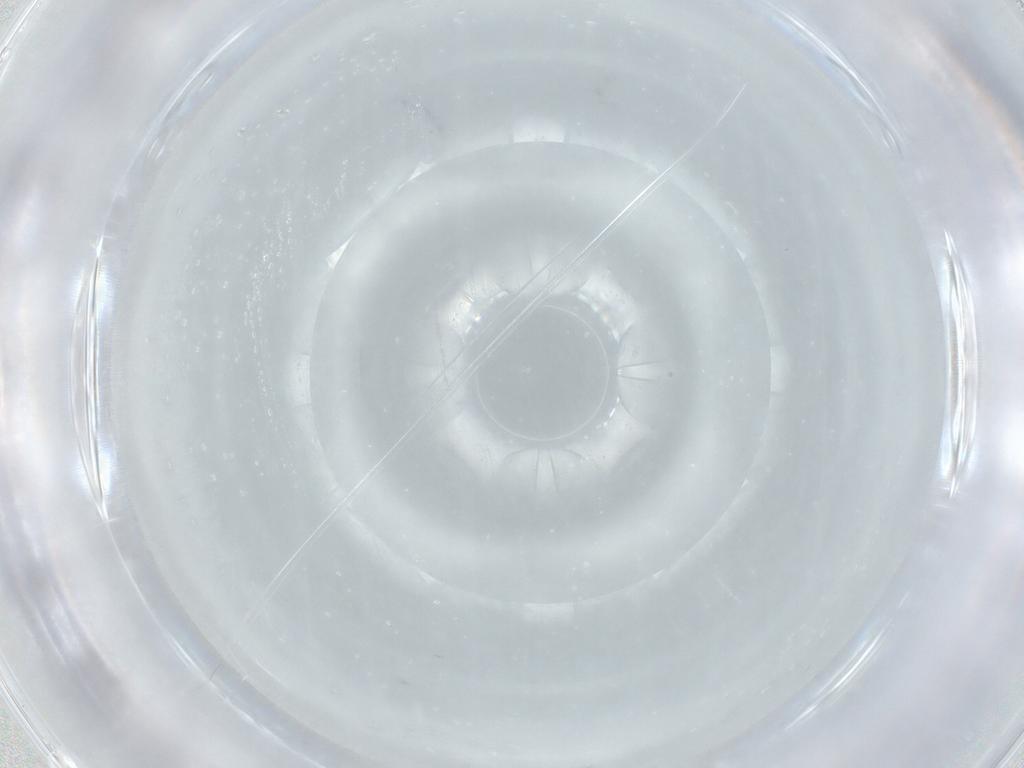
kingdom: Animalia
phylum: Arthropoda
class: Insecta
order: Diptera
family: Phoridae
